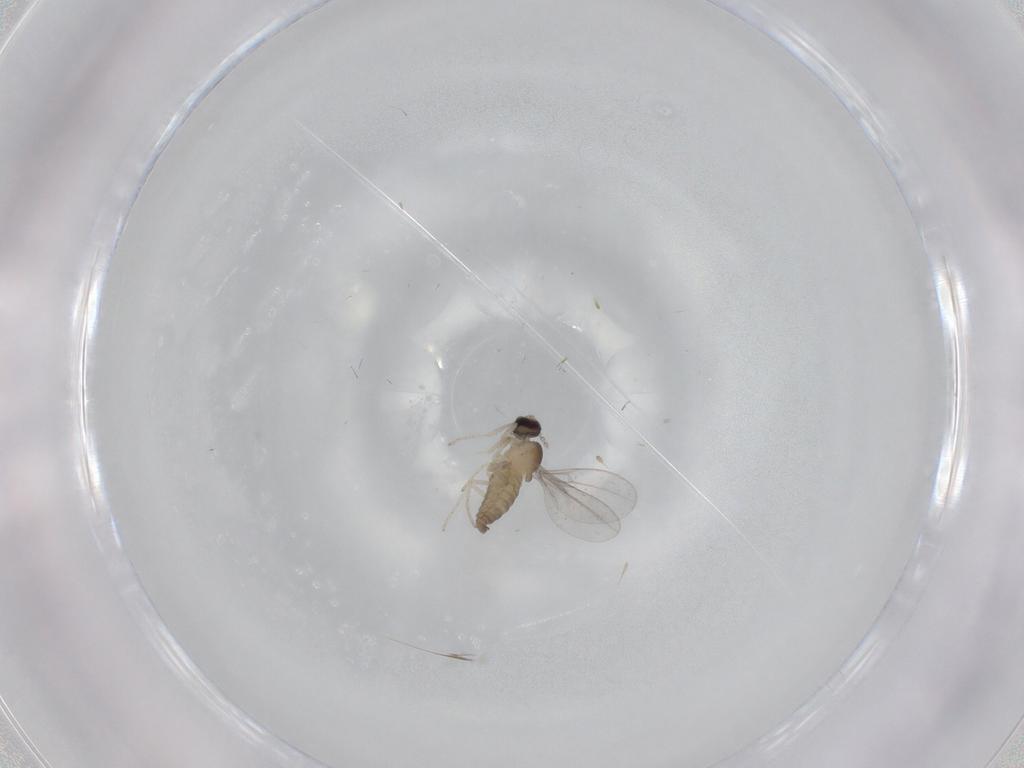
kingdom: Animalia
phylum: Arthropoda
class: Insecta
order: Diptera
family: Cecidomyiidae
